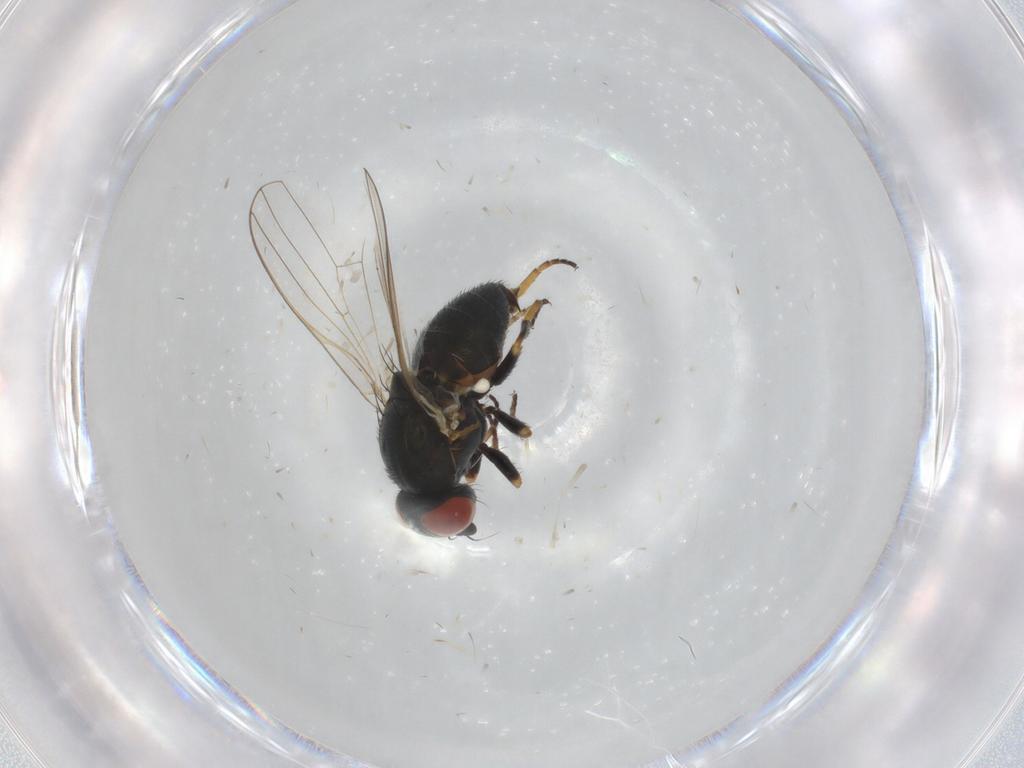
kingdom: Animalia
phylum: Arthropoda
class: Insecta
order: Diptera
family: Chamaemyiidae
